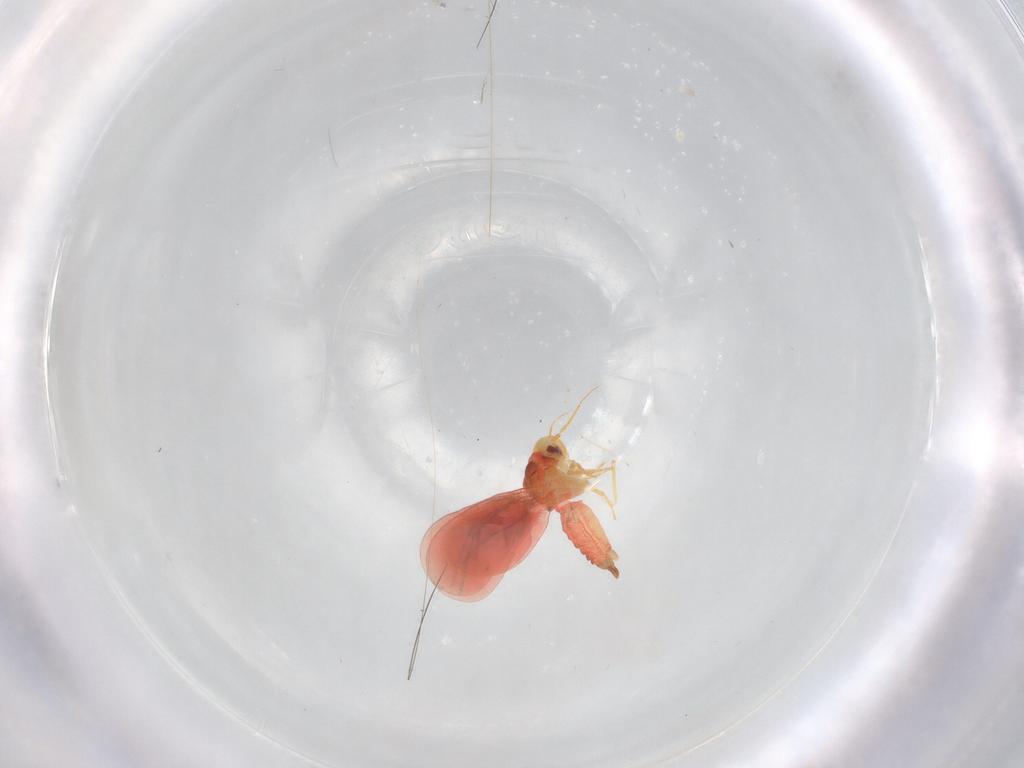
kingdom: Animalia
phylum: Arthropoda
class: Insecta
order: Hemiptera
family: Aleyrodidae
